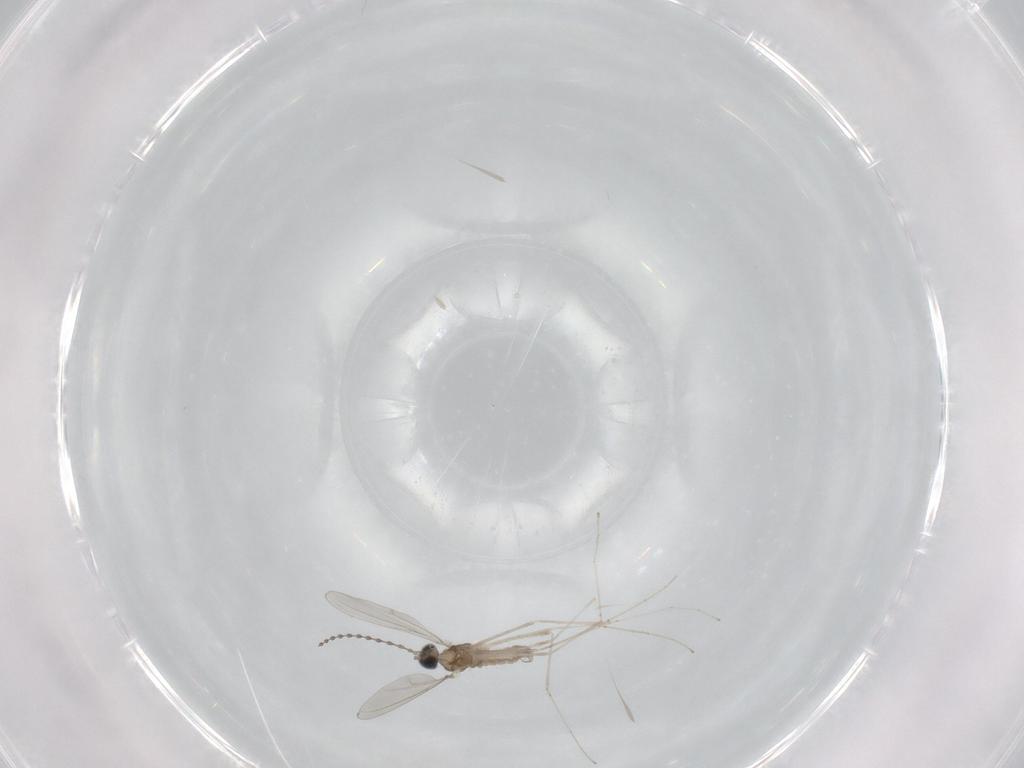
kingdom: Animalia
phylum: Arthropoda
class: Insecta
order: Diptera
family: Cecidomyiidae
